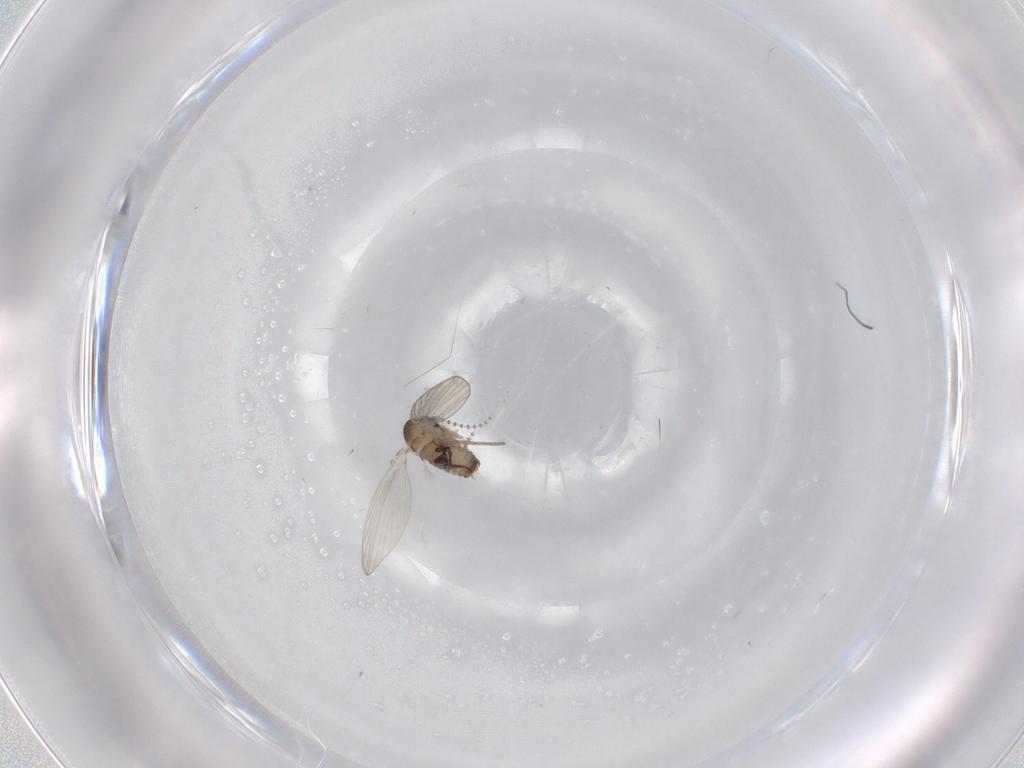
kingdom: Animalia
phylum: Arthropoda
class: Insecta
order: Diptera
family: Psychodidae
